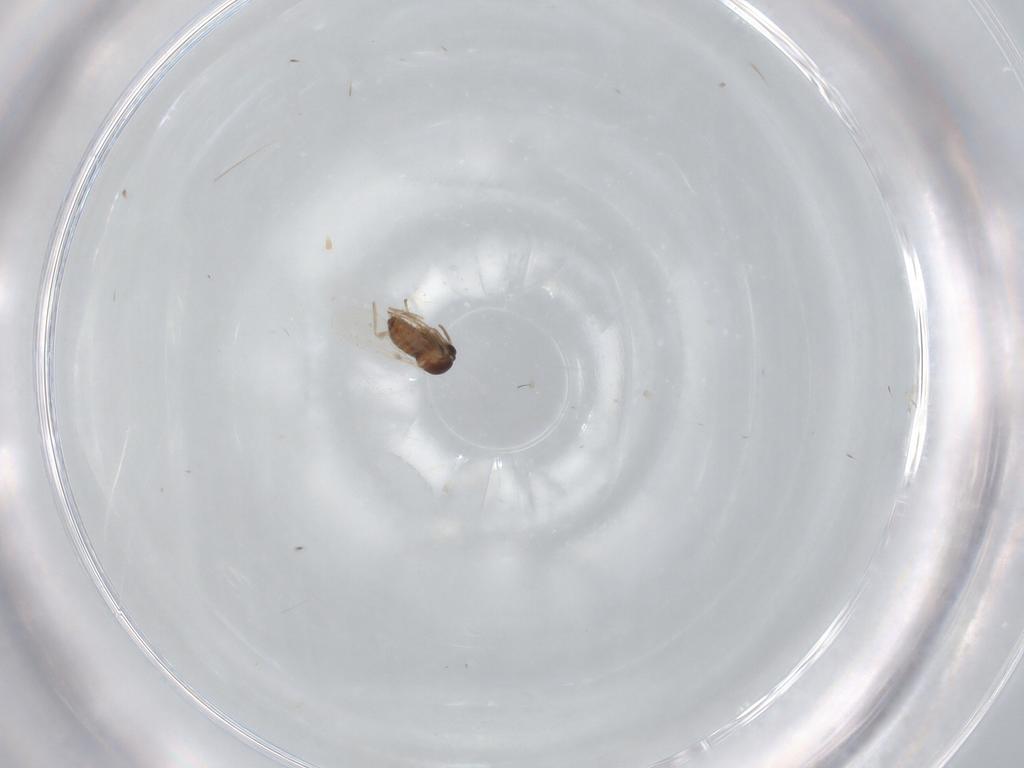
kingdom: Animalia
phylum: Arthropoda
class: Insecta
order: Diptera
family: Cecidomyiidae
